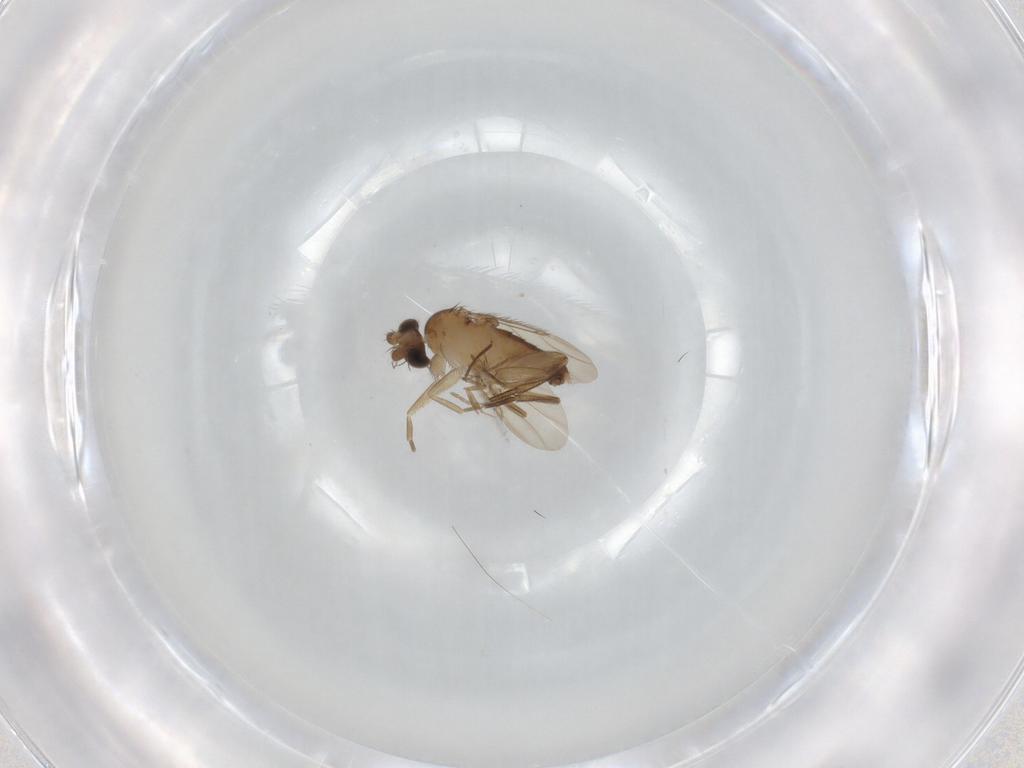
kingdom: Animalia
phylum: Arthropoda
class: Insecta
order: Diptera
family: Phoridae
